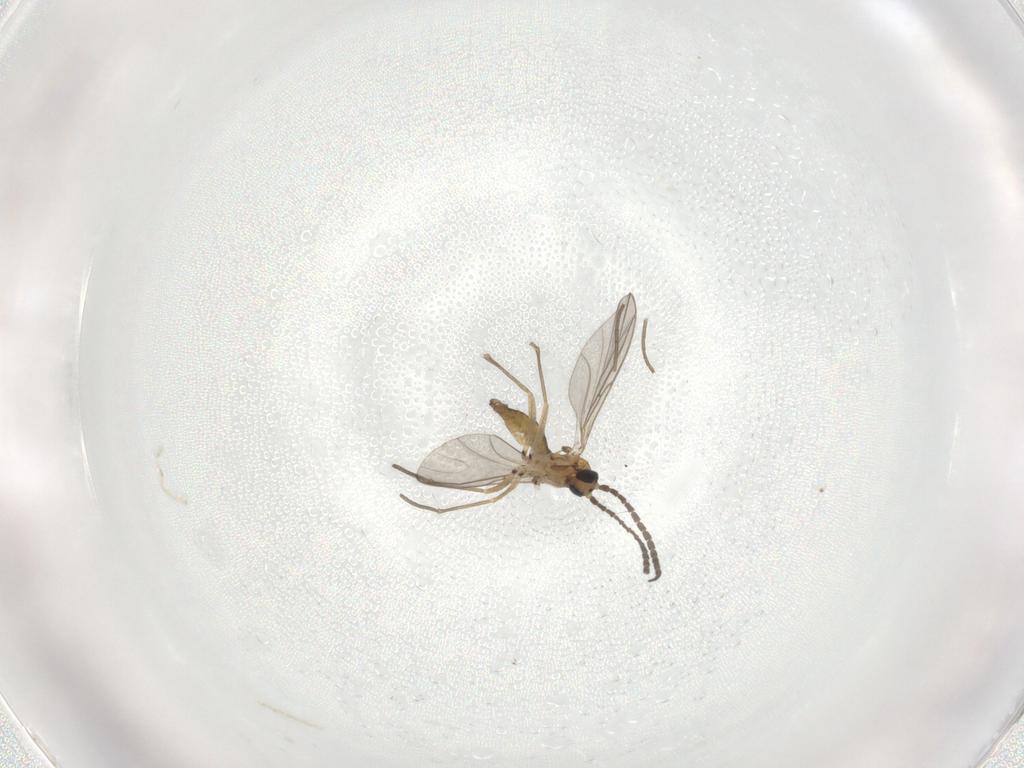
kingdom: Animalia
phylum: Arthropoda
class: Insecta
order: Diptera
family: Sciaridae
